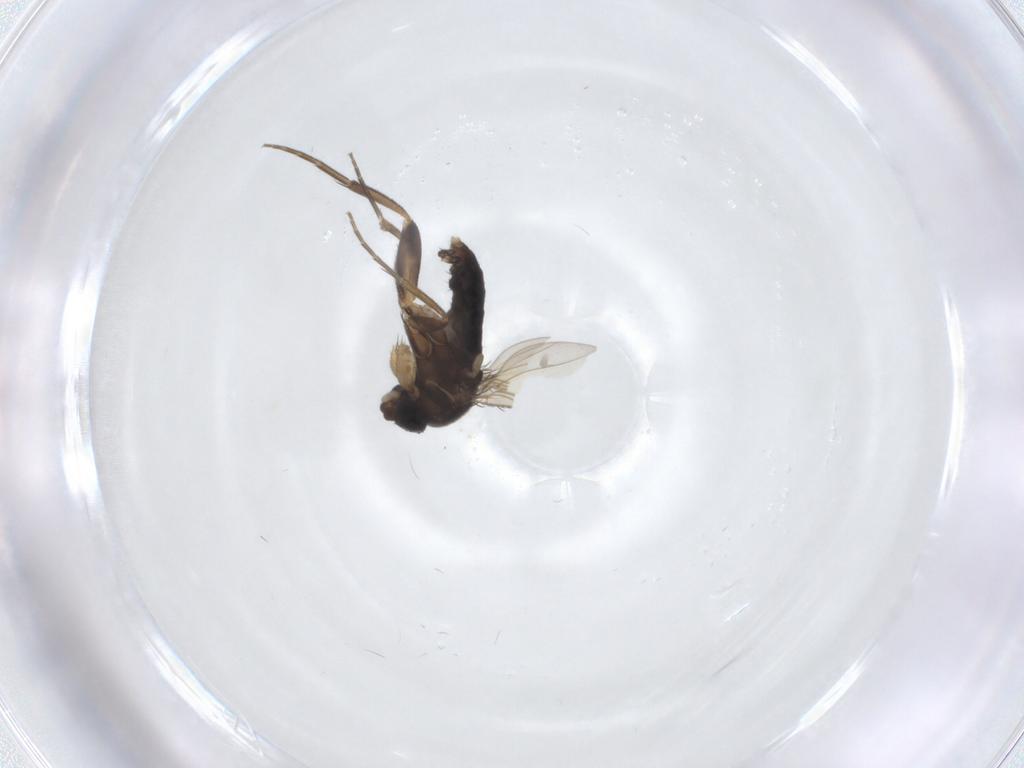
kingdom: Animalia
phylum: Arthropoda
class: Insecta
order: Diptera
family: Phoridae
